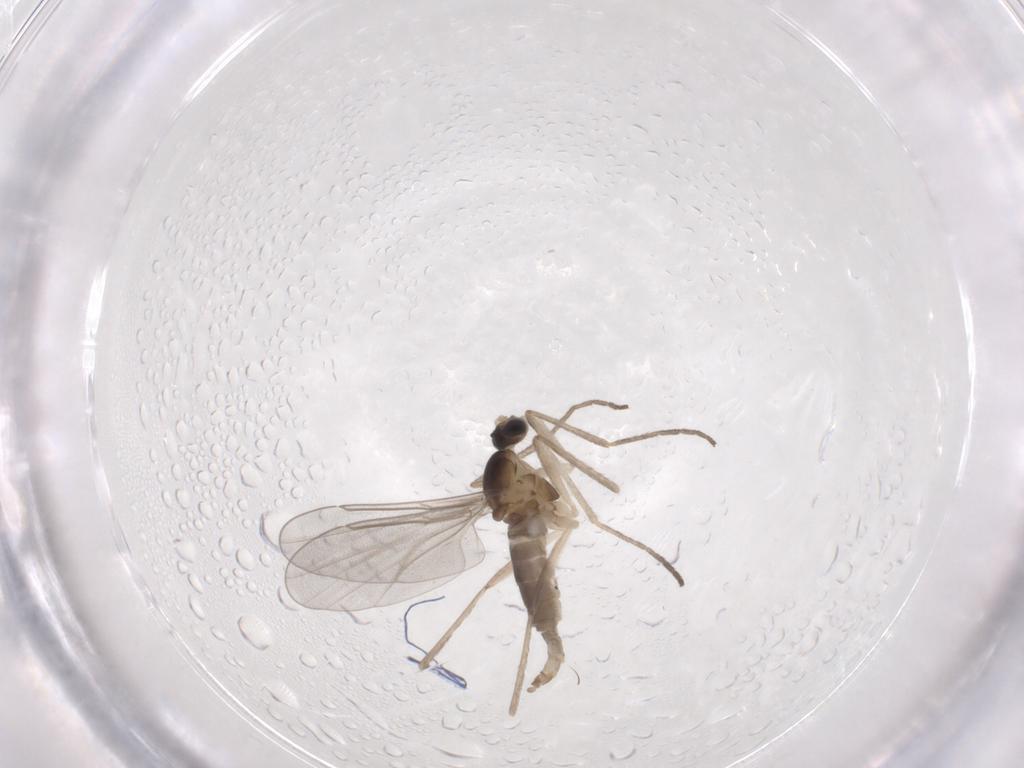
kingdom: Animalia
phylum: Arthropoda
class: Insecta
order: Diptera
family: Cecidomyiidae
